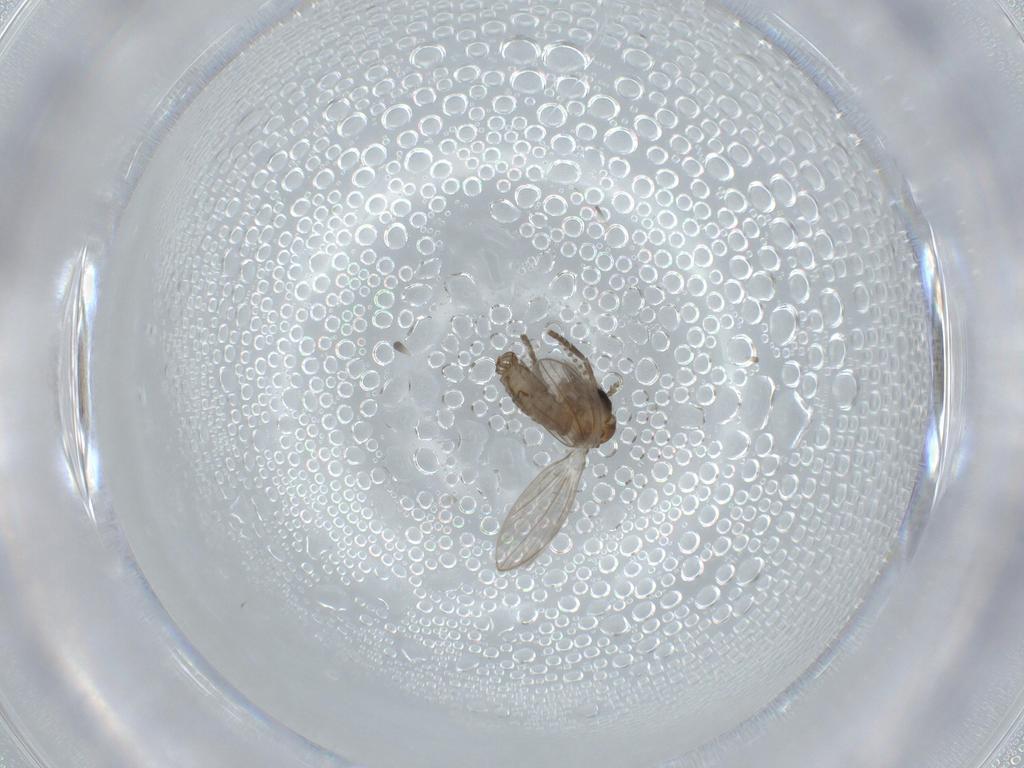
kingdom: Animalia
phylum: Arthropoda
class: Insecta
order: Diptera
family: Psychodidae
